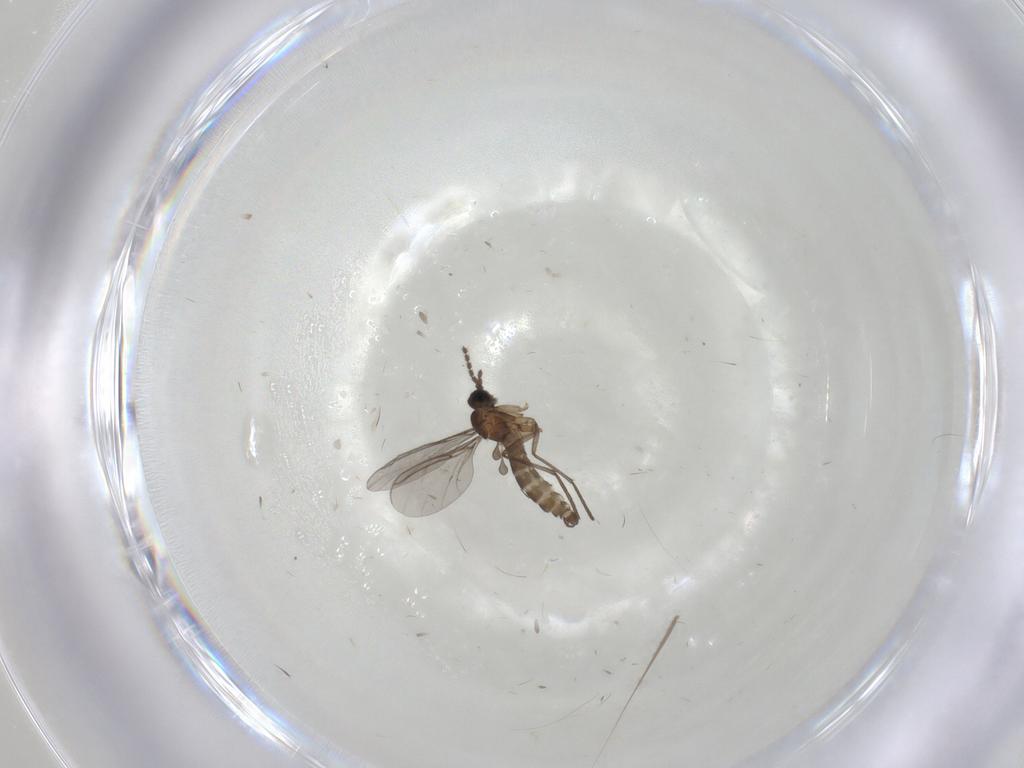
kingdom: Animalia
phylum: Arthropoda
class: Insecta
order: Diptera
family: Sciaridae
